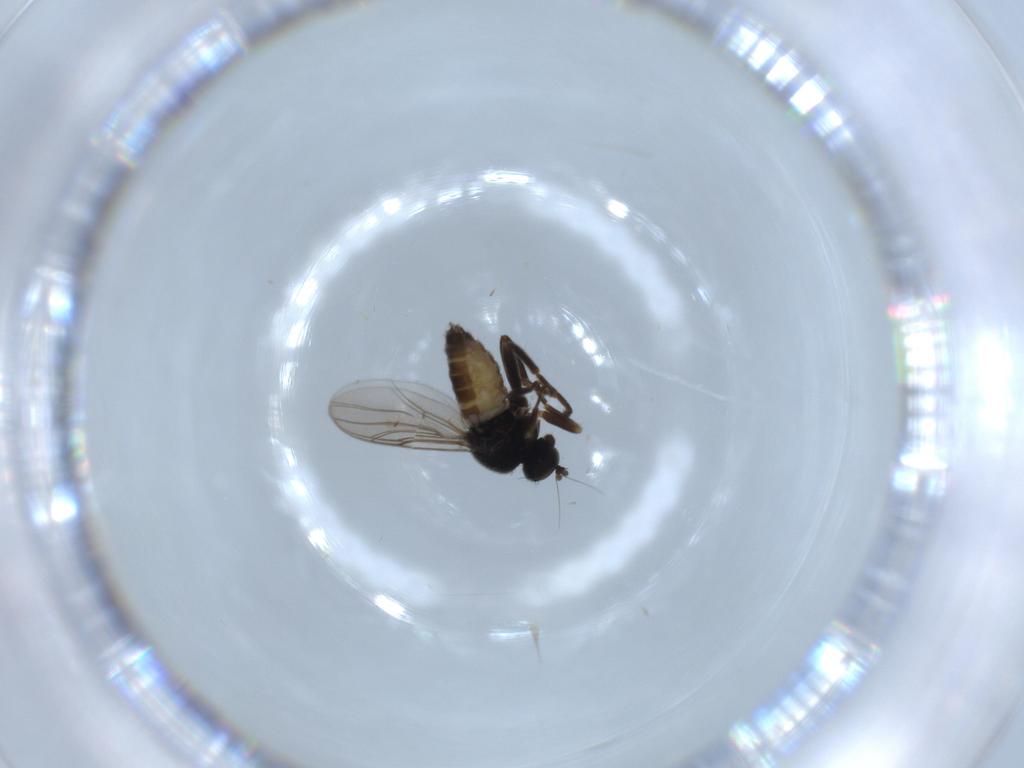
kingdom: Animalia
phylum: Arthropoda
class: Insecta
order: Diptera
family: Hybotidae
